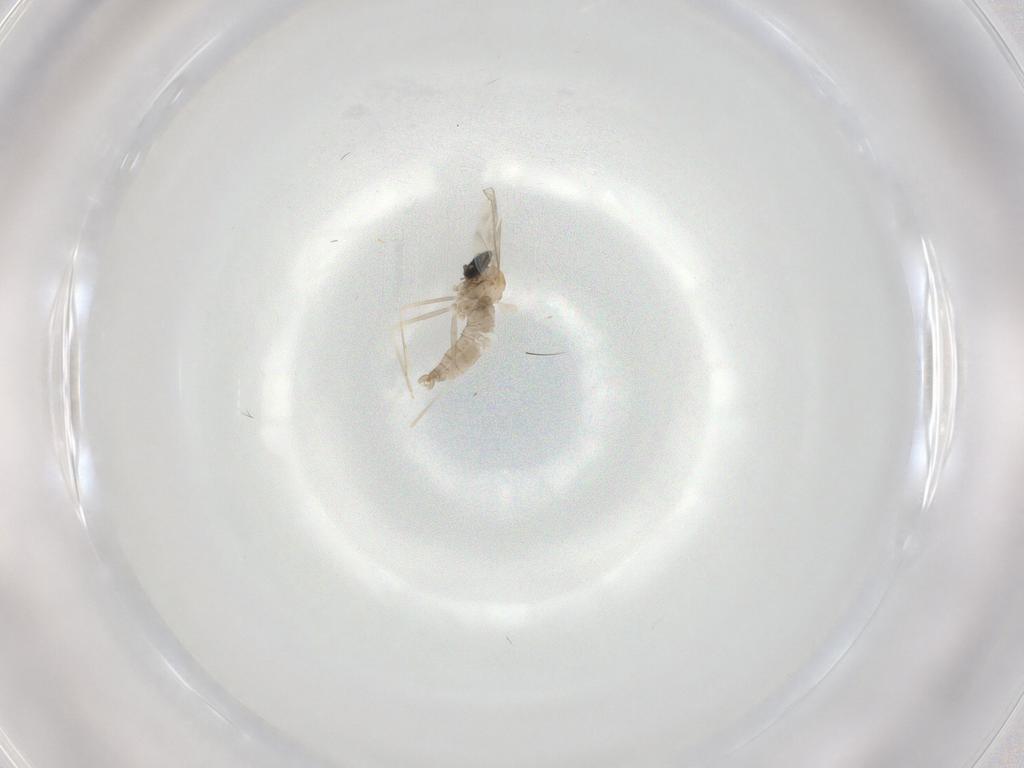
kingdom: Animalia
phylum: Arthropoda
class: Insecta
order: Diptera
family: Cecidomyiidae
